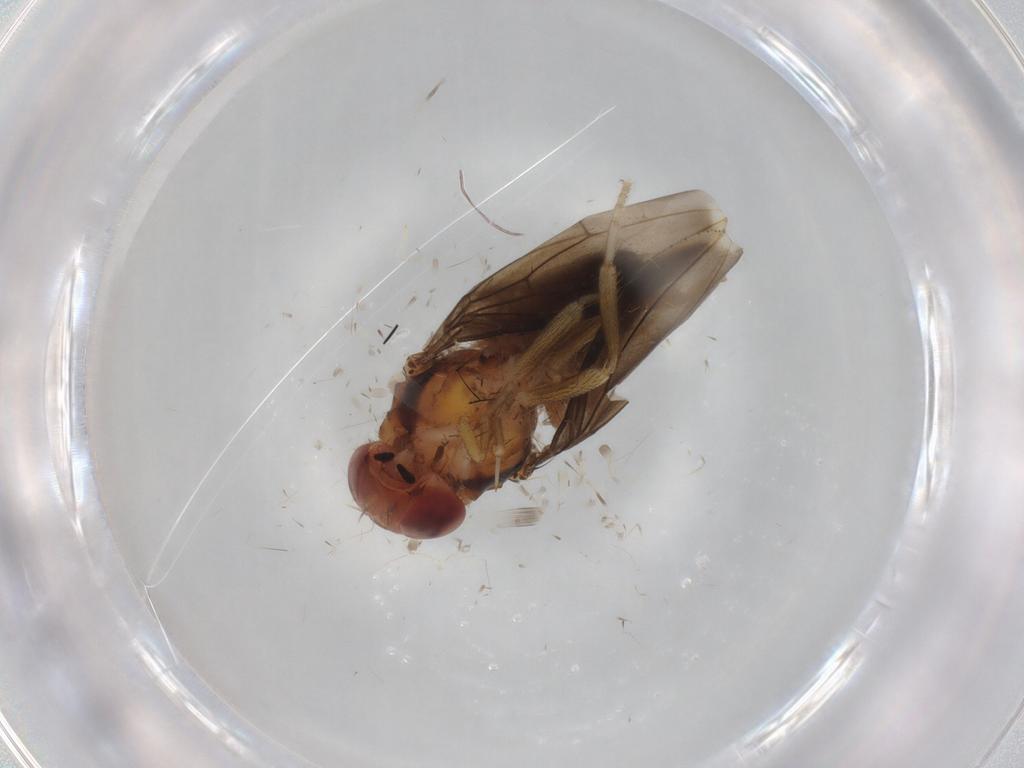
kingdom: Animalia
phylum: Arthropoda
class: Insecta
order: Diptera
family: Drosophilidae
